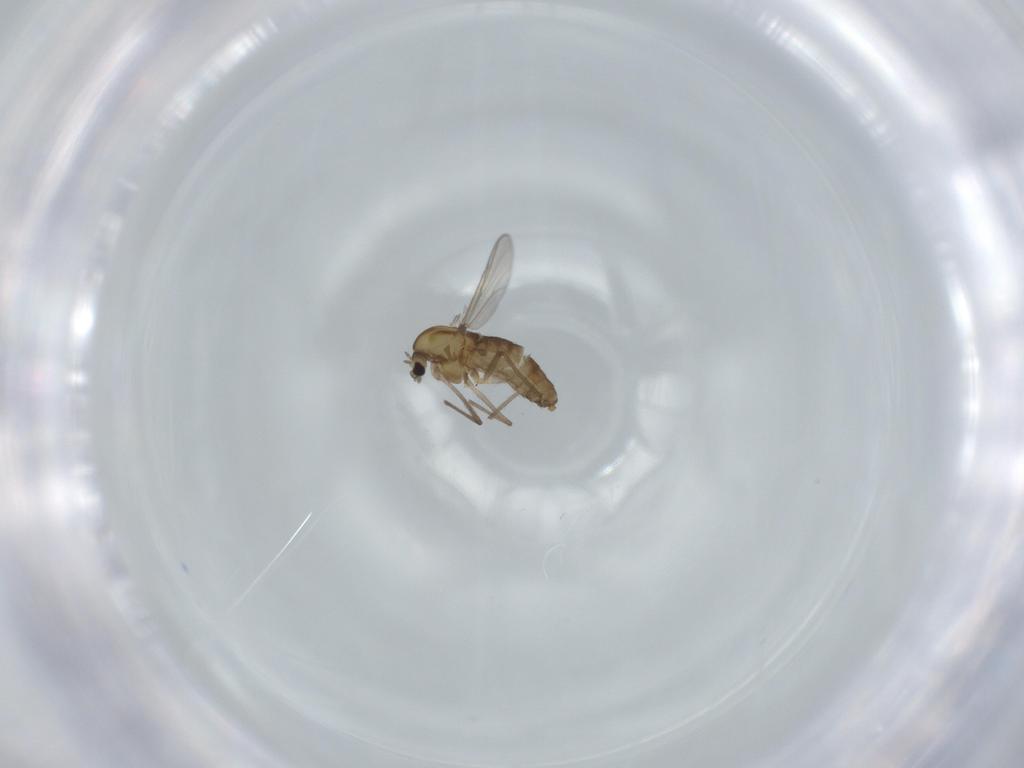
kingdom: Animalia
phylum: Arthropoda
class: Insecta
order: Diptera
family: Chironomidae
